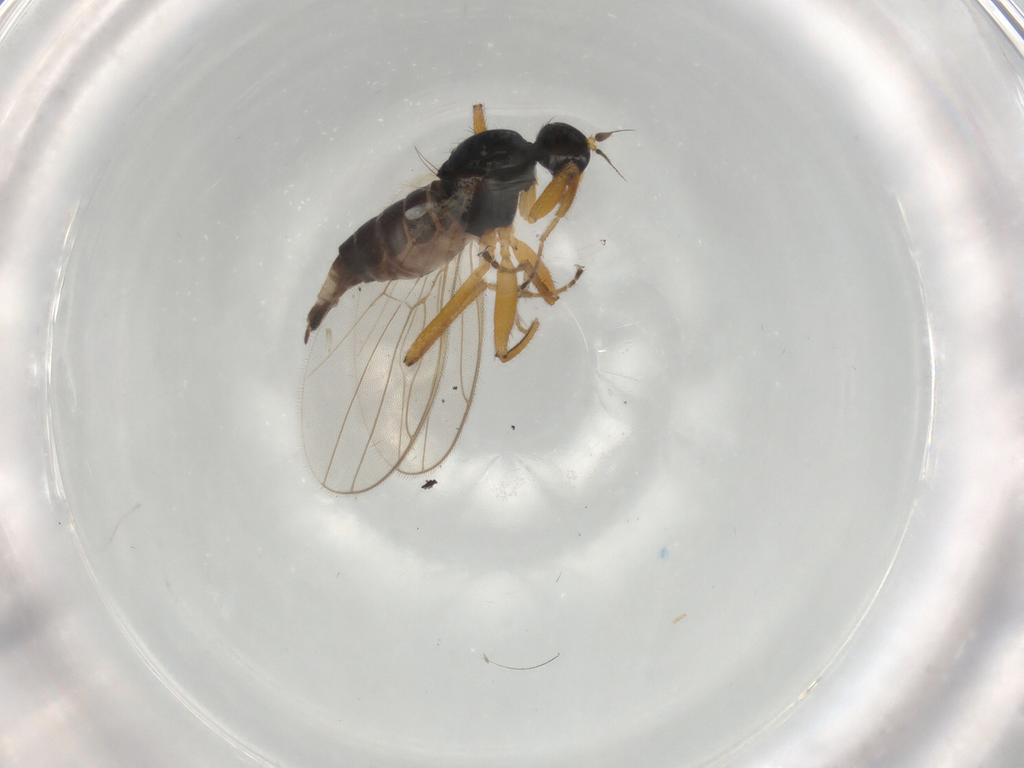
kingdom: Animalia
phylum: Arthropoda
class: Insecta
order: Diptera
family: Hybotidae
